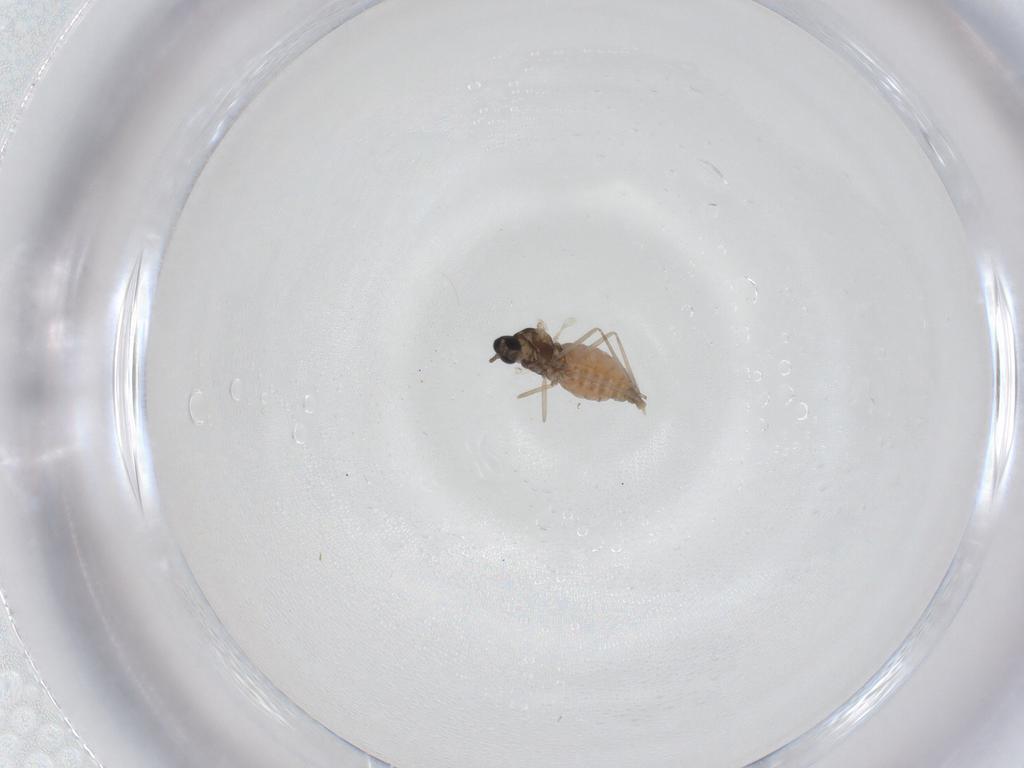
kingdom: Animalia
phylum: Arthropoda
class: Insecta
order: Diptera
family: Cecidomyiidae
